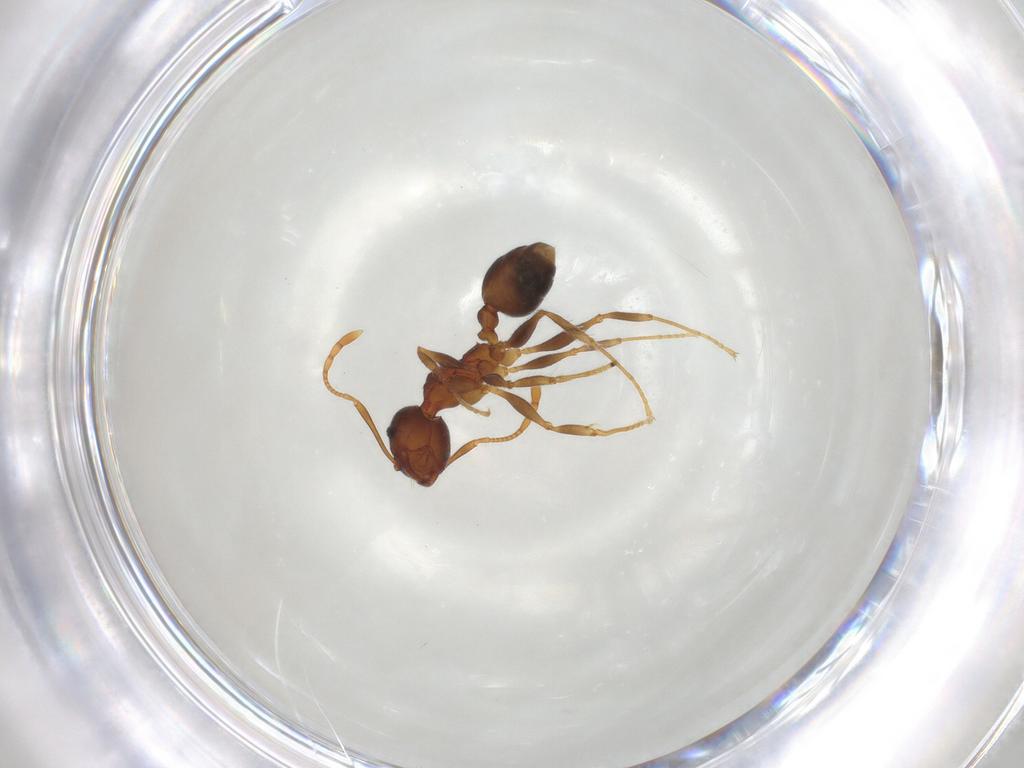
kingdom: Animalia
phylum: Arthropoda
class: Insecta
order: Hymenoptera
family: Formicidae
